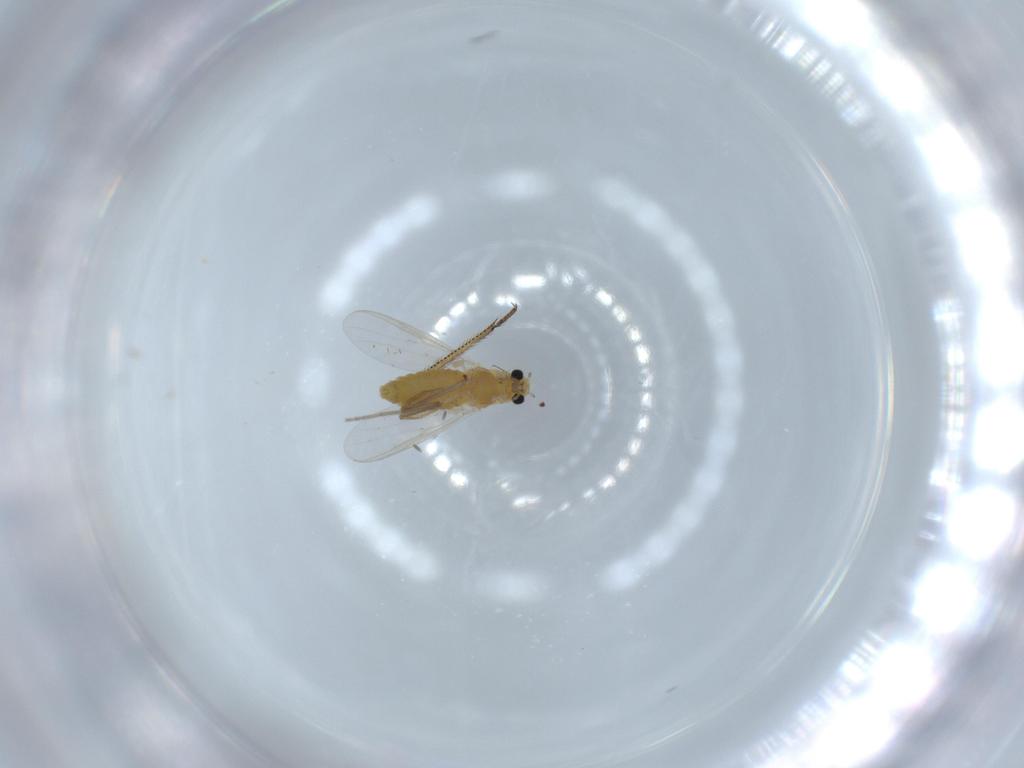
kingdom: Animalia
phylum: Arthropoda
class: Insecta
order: Diptera
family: Chironomidae
